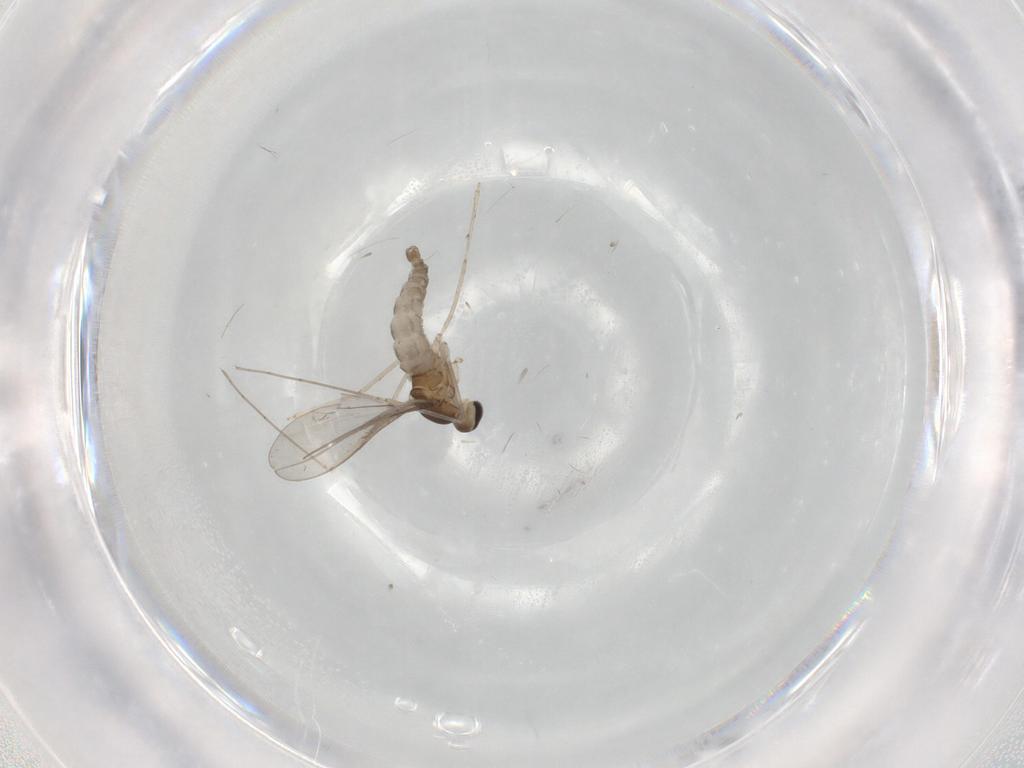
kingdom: Animalia
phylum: Arthropoda
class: Insecta
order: Diptera
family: Cecidomyiidae
